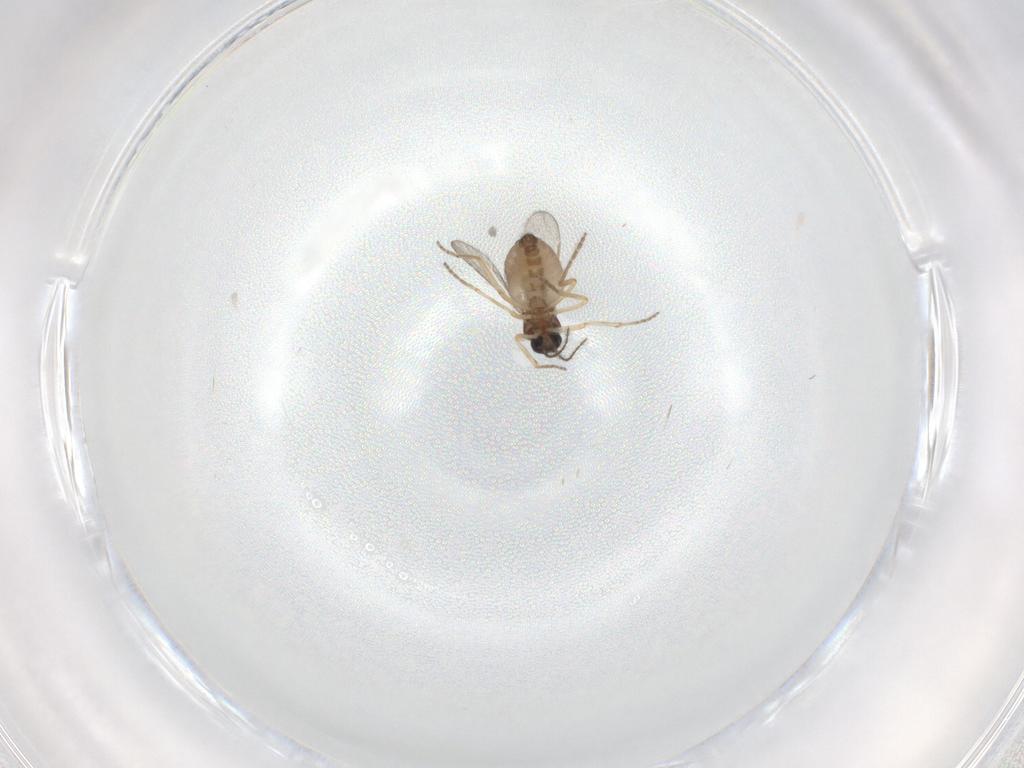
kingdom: Animalia
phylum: Arthropoda
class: Insecta
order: Diptera
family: Ceratopogonidae
